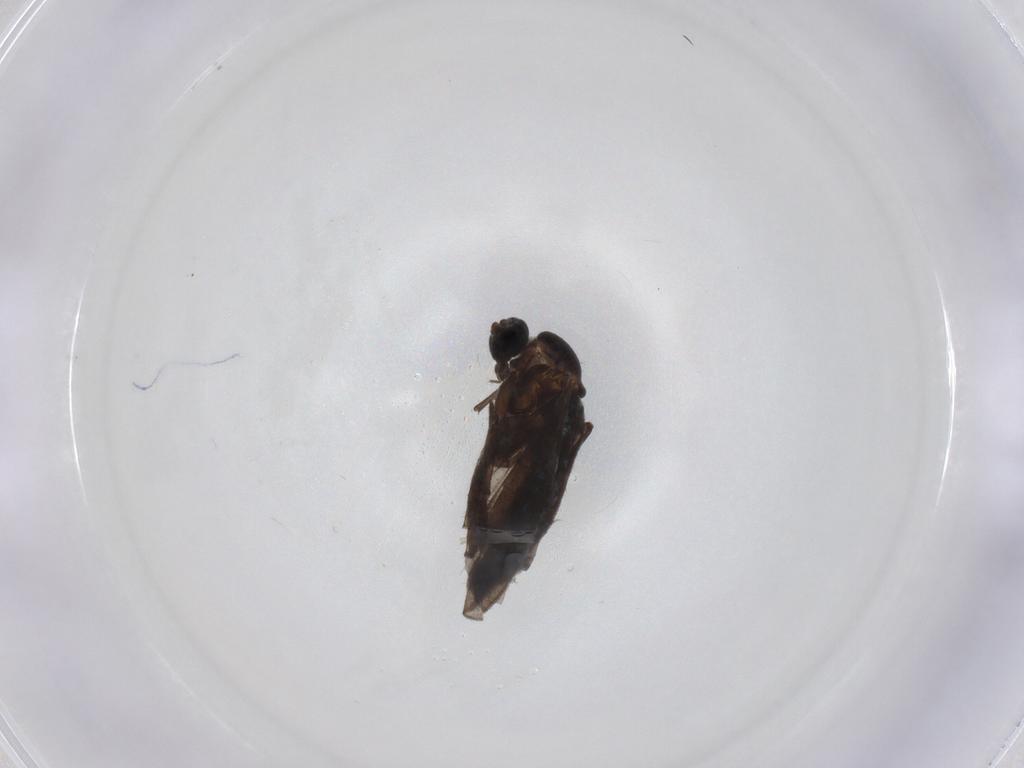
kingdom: Animalia
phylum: Arthropoda
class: Insecta
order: Diptera
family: Sciaridae
